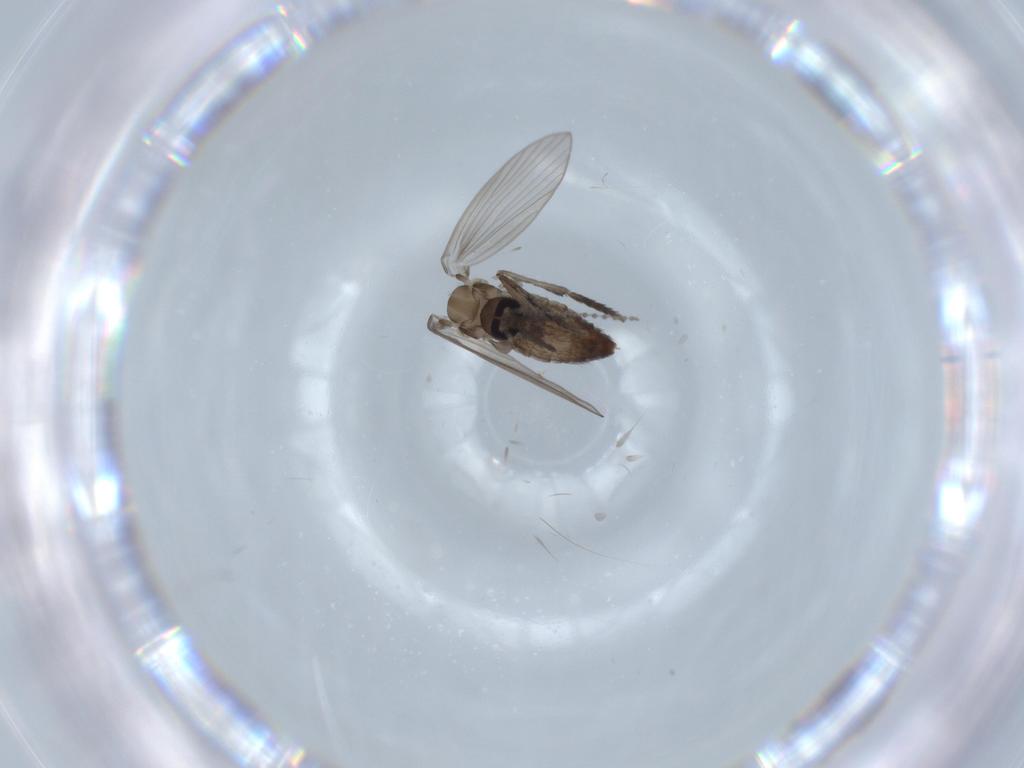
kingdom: Animalia
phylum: Arthropoda
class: Insecta
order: Diptera
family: Psychodidae
